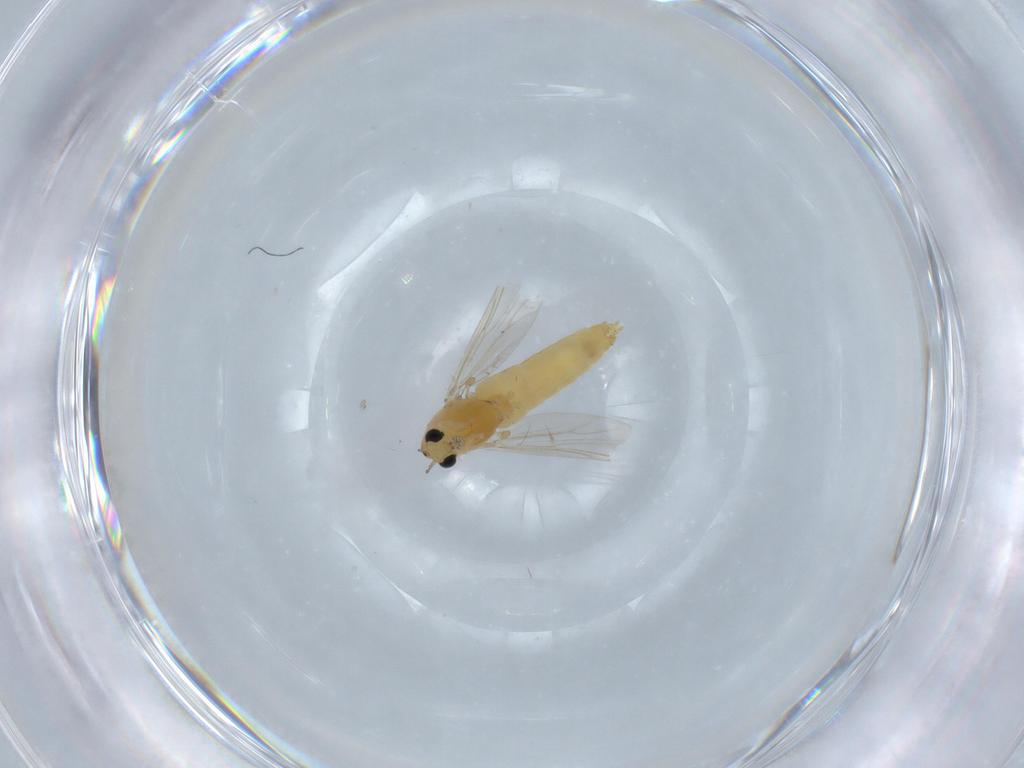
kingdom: Animalia
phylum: Arthropoda
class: Insecta
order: Diptera
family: Chironomidae
